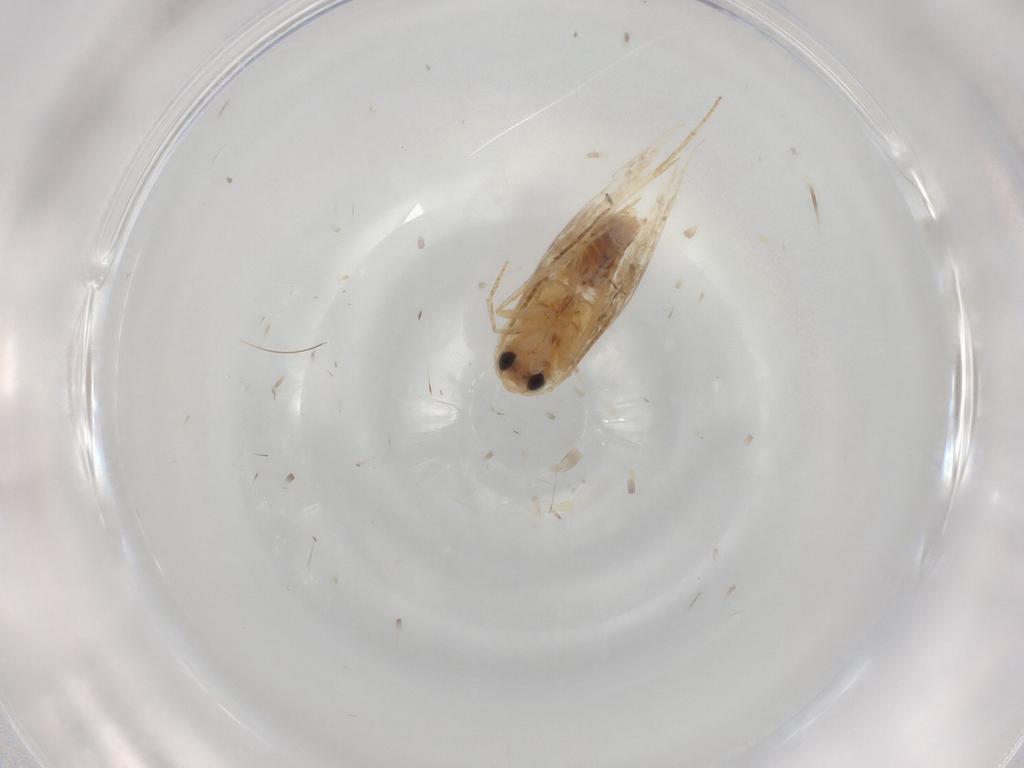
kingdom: Animalia
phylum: Arthropoda
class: Insecta
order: Lepidoptera
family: Bucculatricidae
